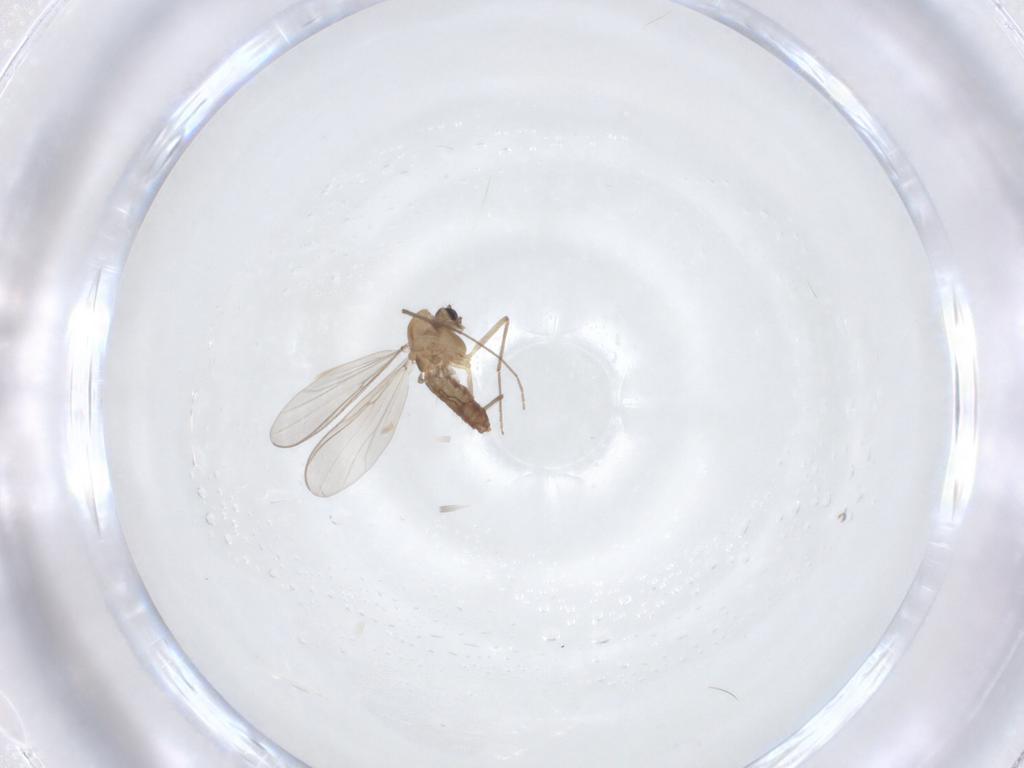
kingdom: Animalia
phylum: Arthropoda
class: Insecta
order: Diptera
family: Chironomidae
